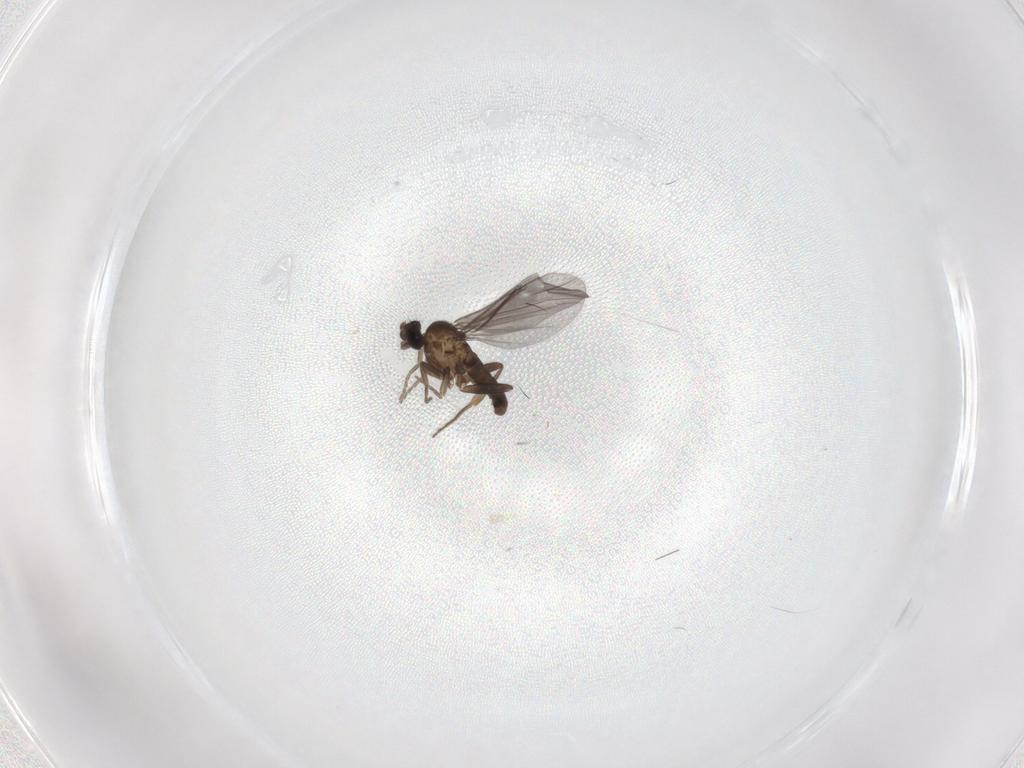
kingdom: Animalia
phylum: Arthropoda
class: Insecta
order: Diptera
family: Phoridae
